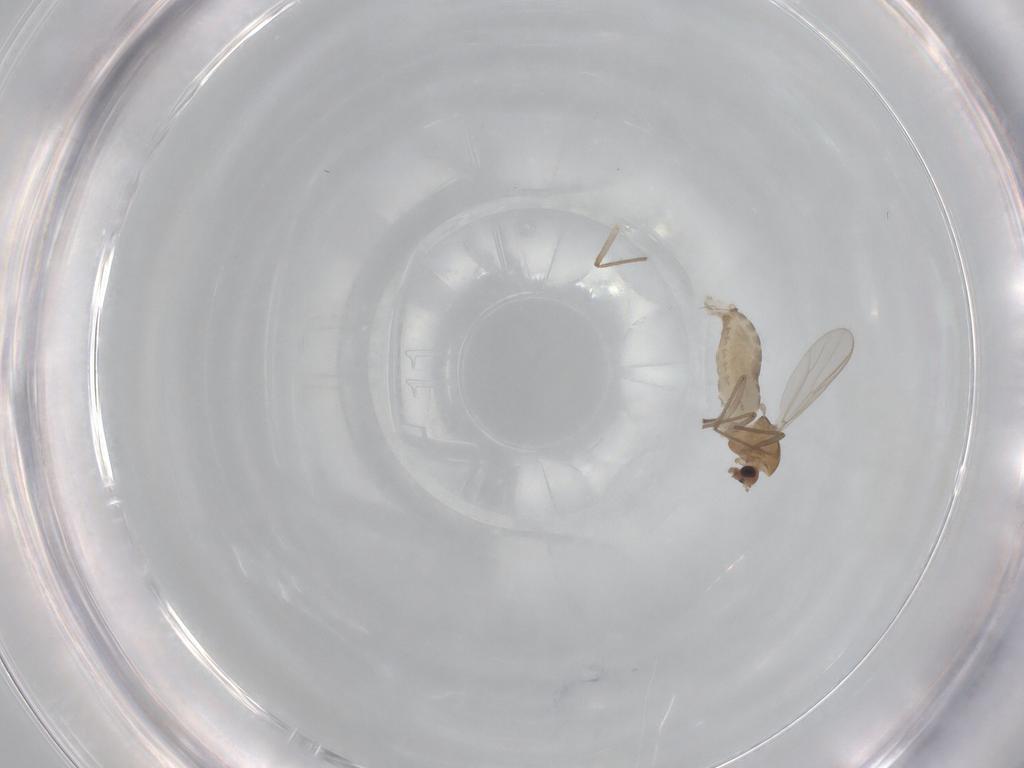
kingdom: Animalia
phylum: Arthropoda
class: Insecta
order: Diptera
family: Chironomidae
